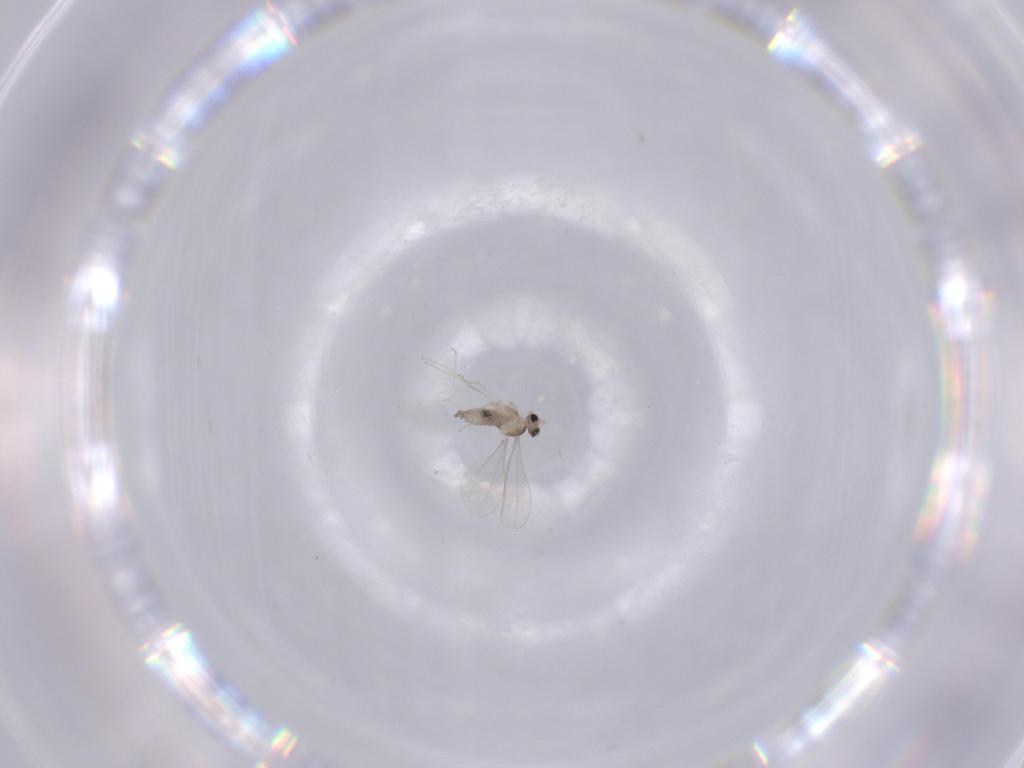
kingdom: Animalia
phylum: Arthropoda
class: Insecta
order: Diptera
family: Cecidomyiidae
